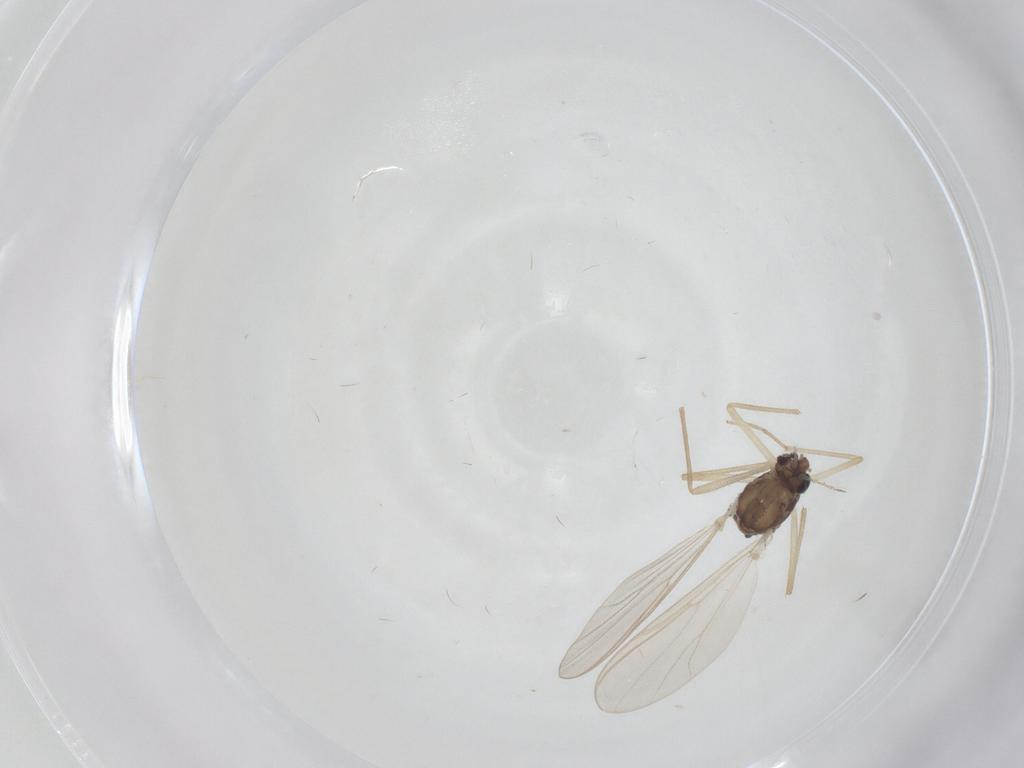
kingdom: Animalia
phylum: Arthropoda
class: Insecta
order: Diptera
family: Chironomidae
